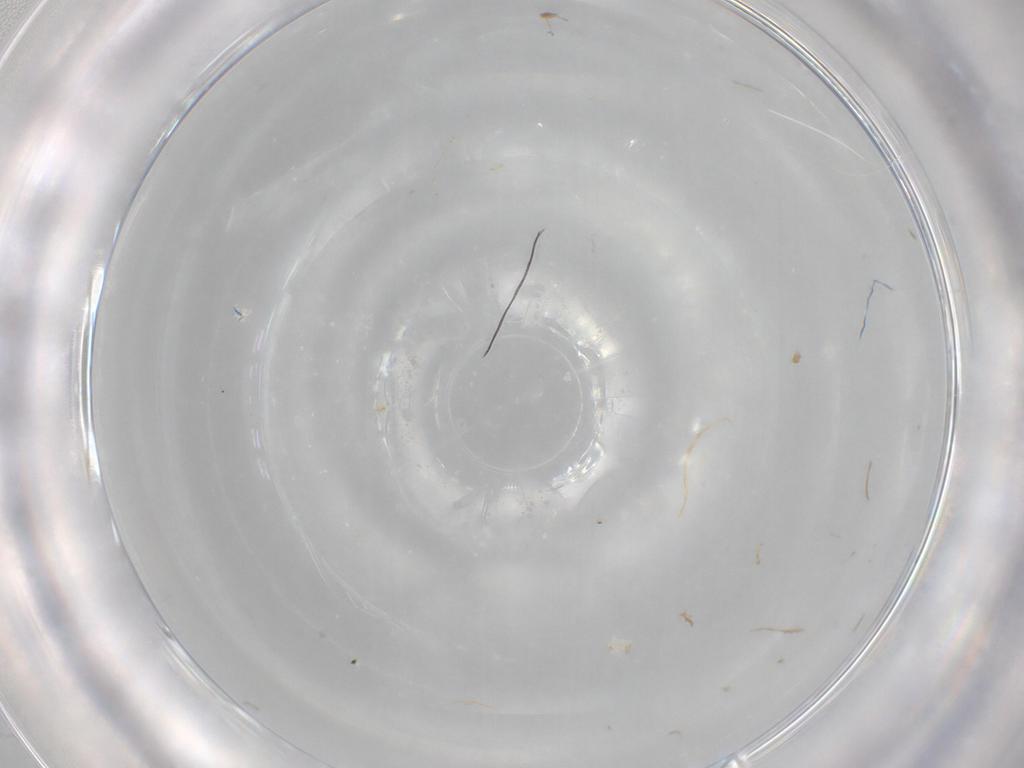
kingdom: Animalia
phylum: Arthropoda
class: Insecta
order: Diptera
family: Cecidomyiidae
